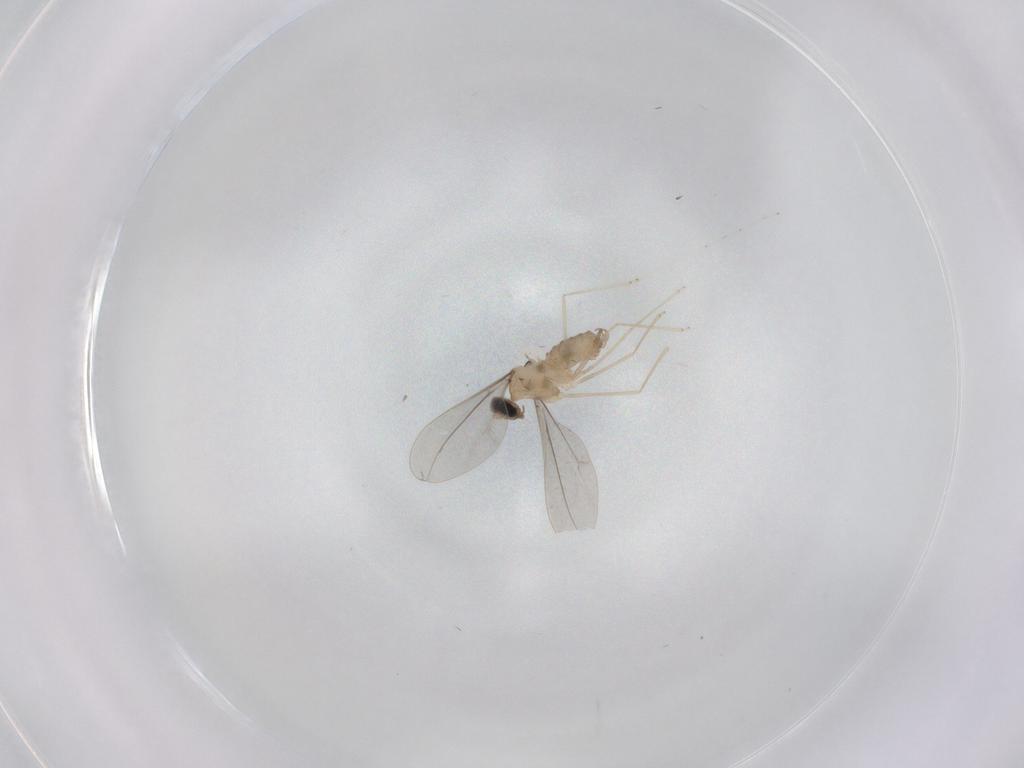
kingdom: Animalia
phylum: Arthropoda
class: Insecta
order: Diptera
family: Cecidomyiidae
